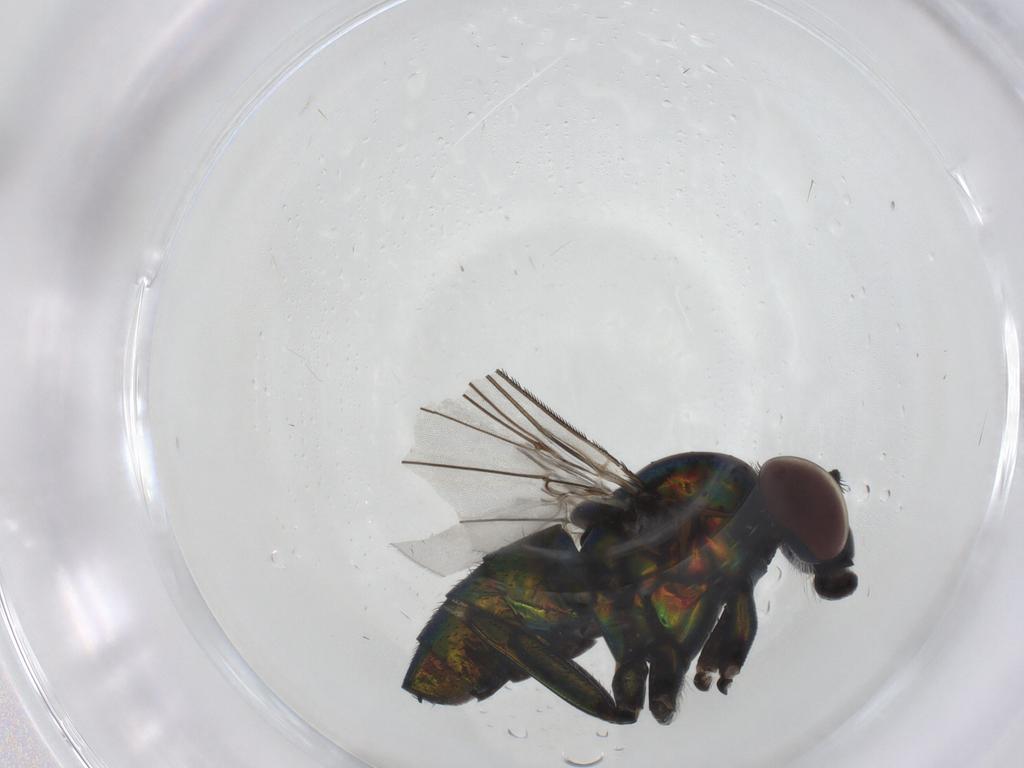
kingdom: Animalia
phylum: Arthropoda
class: Insecta
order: Diptera
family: Dolichopodidae
